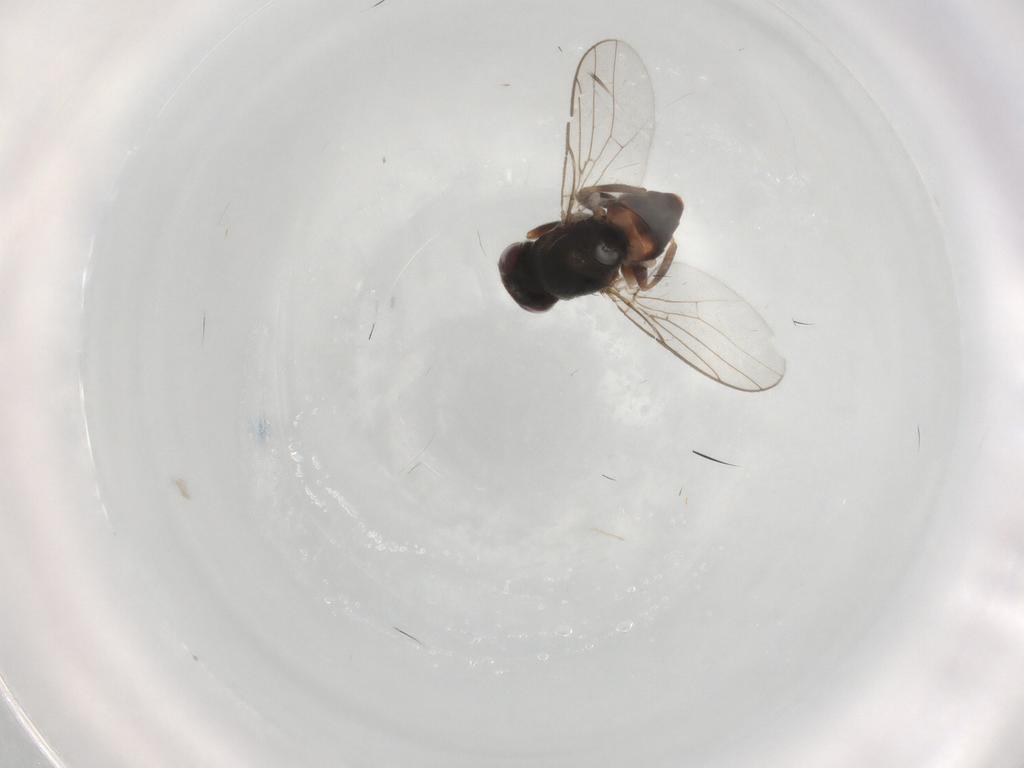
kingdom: Animalia
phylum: Arthropoda
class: Insecta
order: Diptera
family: Chloropidae
